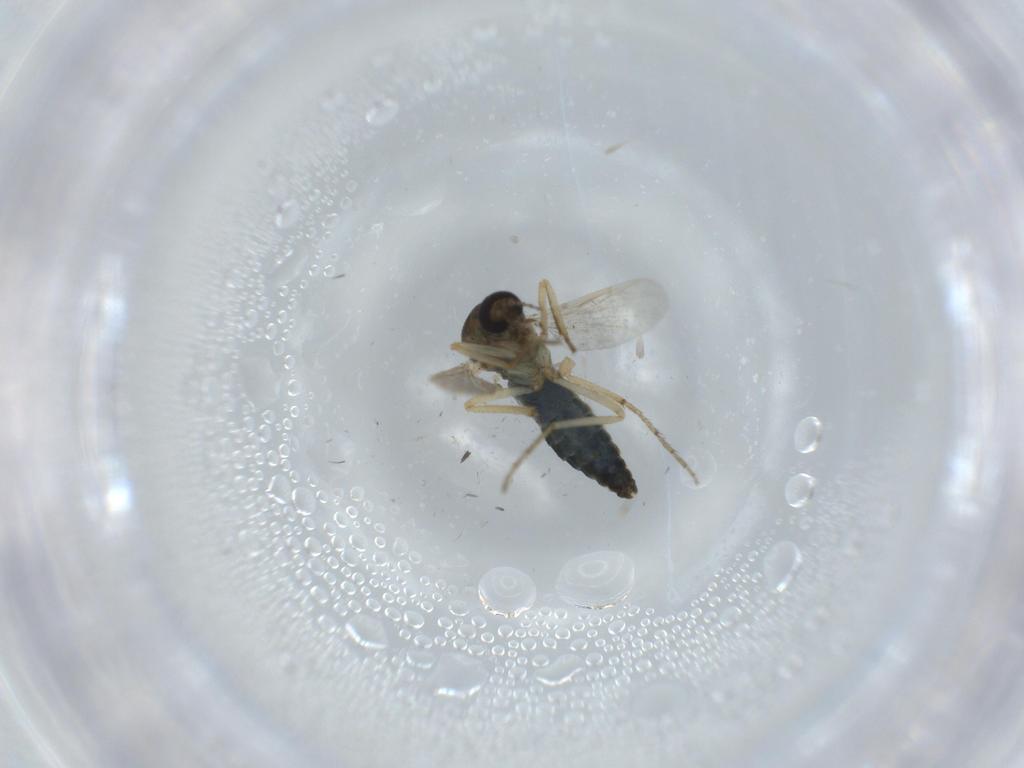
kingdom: Animalia
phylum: Arthropoda
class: Insecta
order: Diptera
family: Ceratopogonidae
